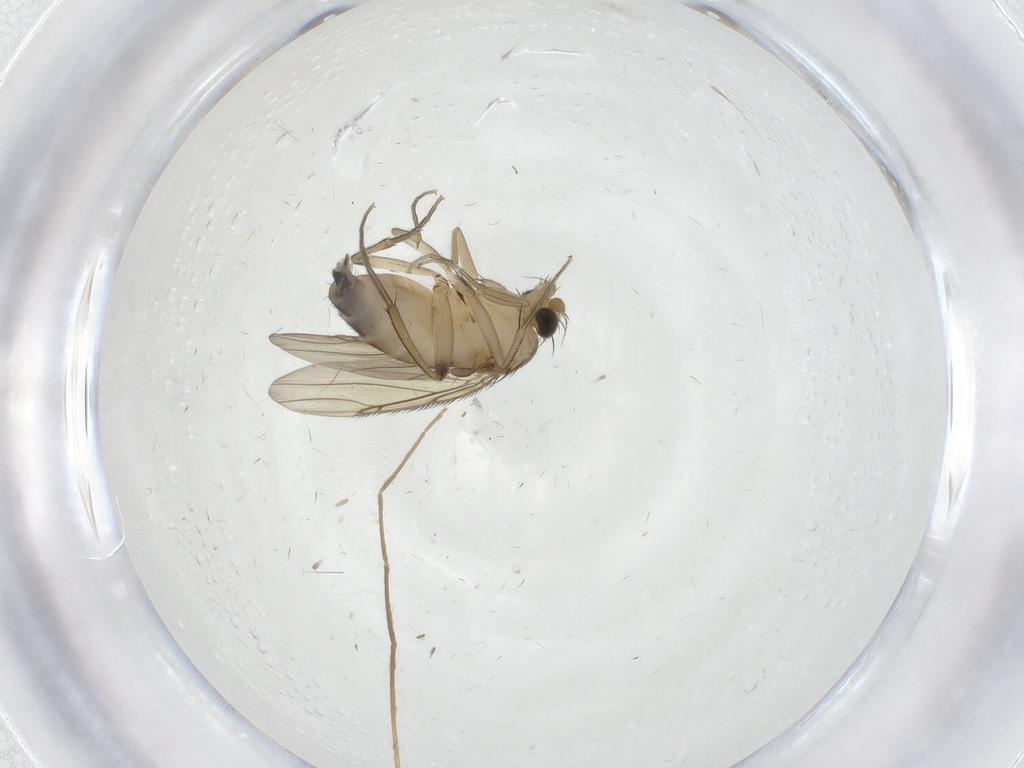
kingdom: Animalia
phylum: Arthropoda
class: Insecta
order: Diptera
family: Phoridae
